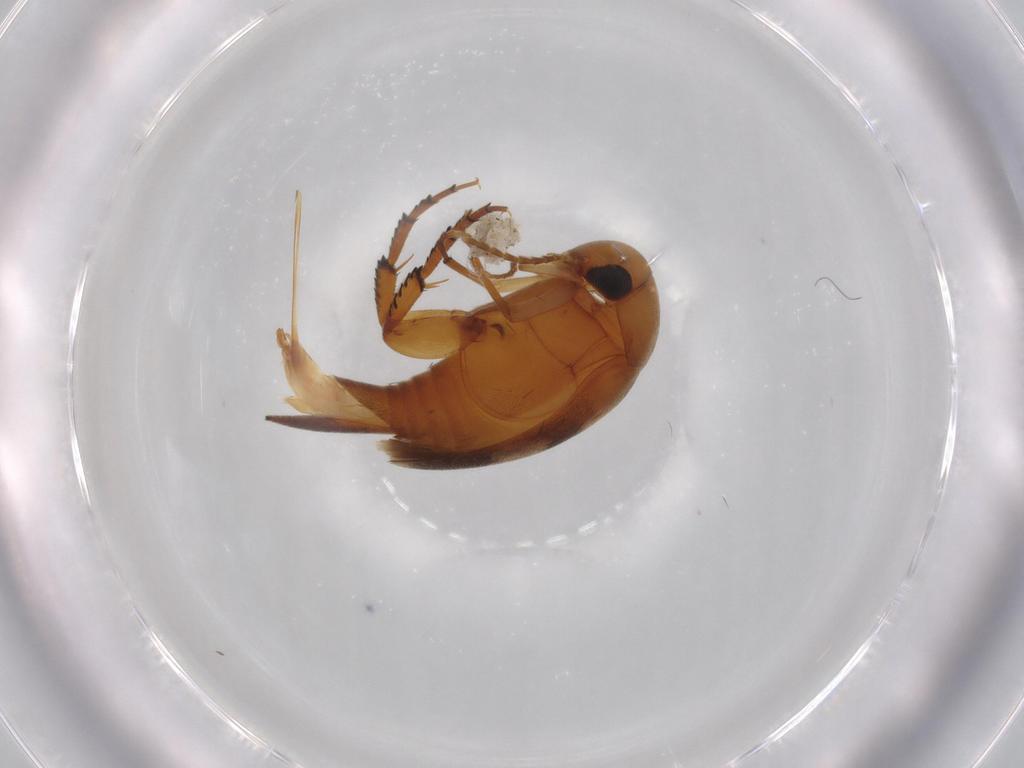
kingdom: Animalia
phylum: Arthropoda
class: Insecta
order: Coleoptera
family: Mordellidae
